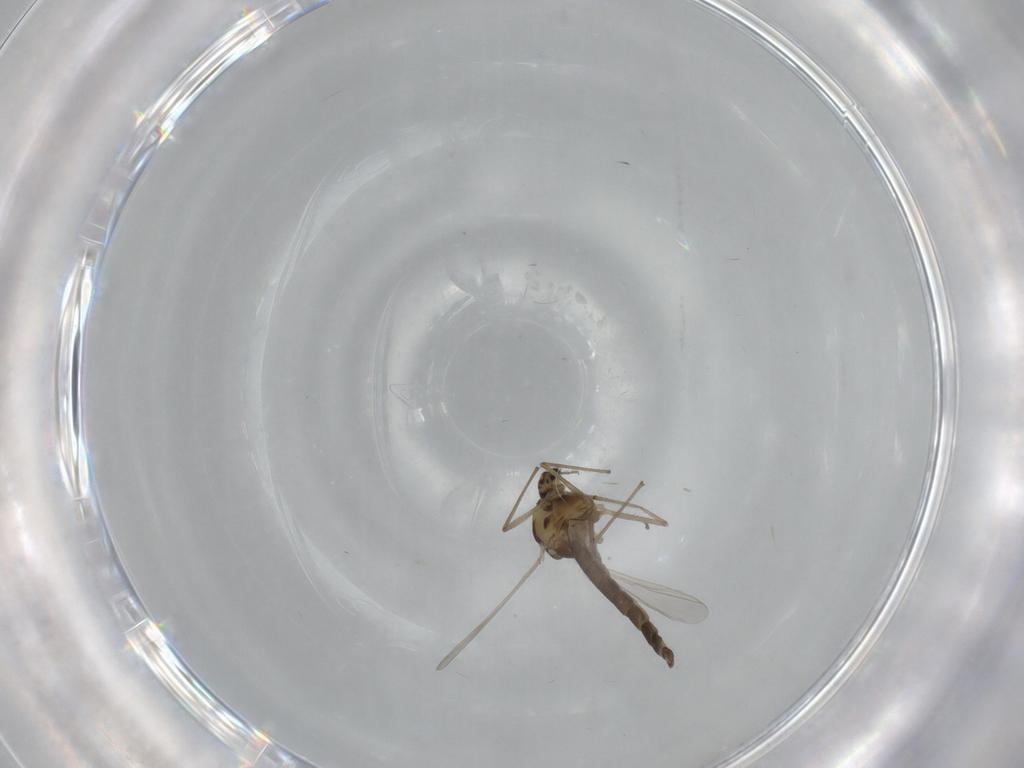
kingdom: Animalia
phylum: Arthropoda
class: Insecta
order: Diptera
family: Chironomidae
